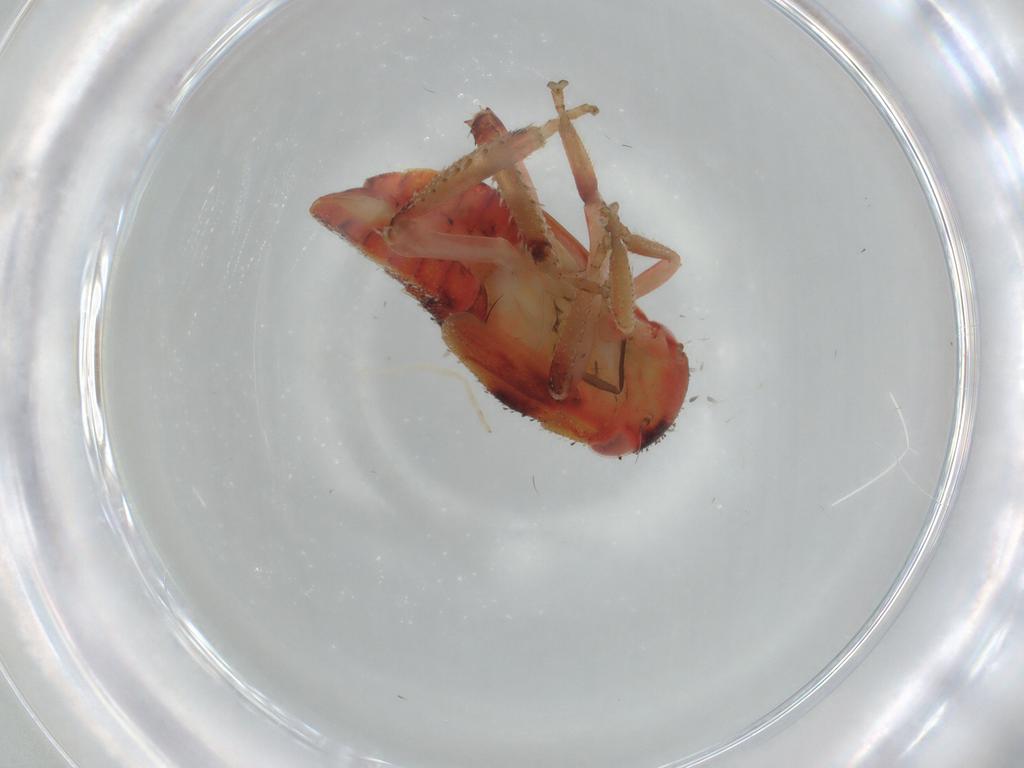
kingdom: Animalia
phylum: Arthropoda
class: Insecta
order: Hemiptera
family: Cicadellidae
